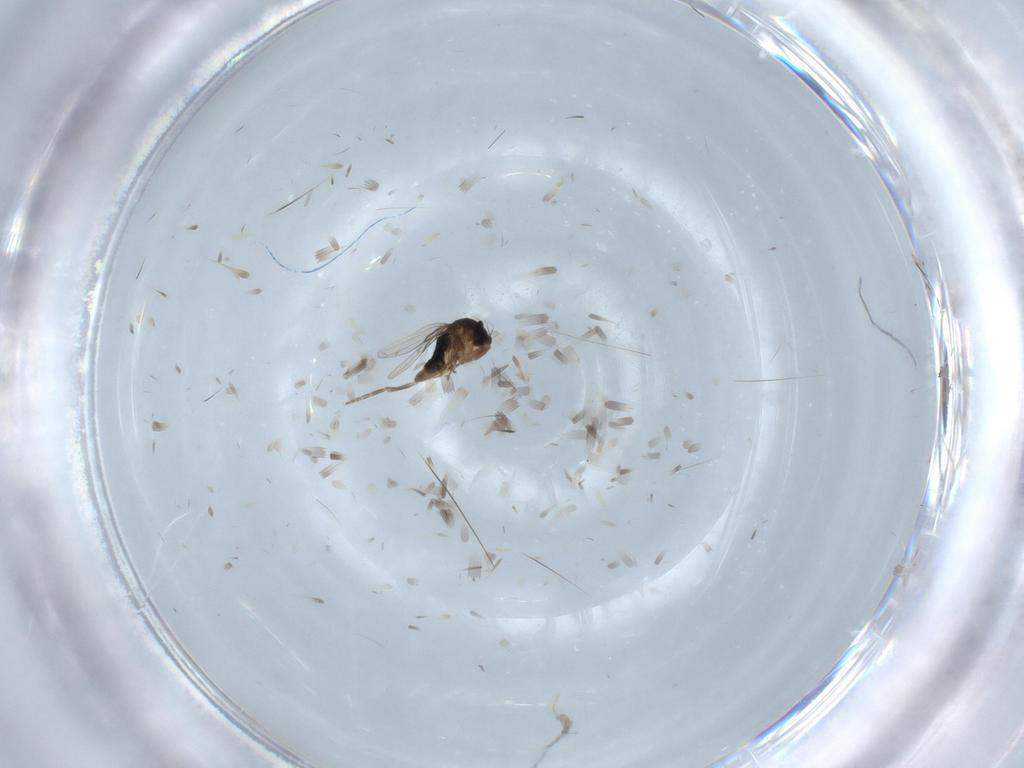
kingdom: Animalia
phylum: Arthropoda
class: Insecta
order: Diptera
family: Phoridae
